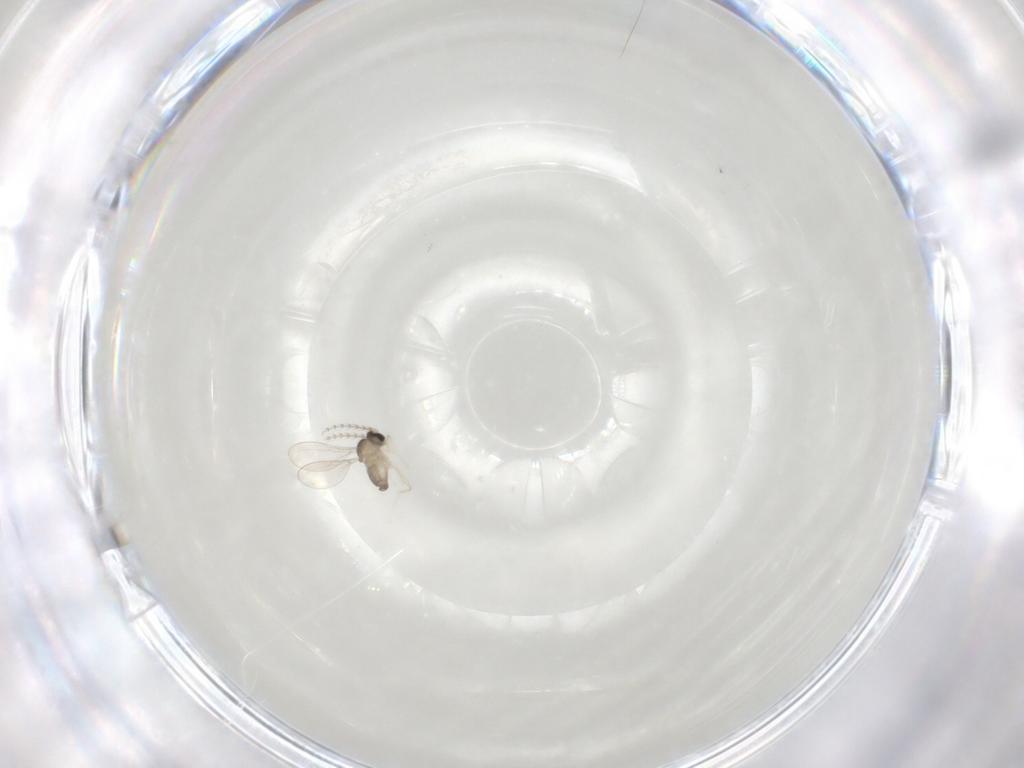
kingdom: Animalia
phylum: Arthropoda
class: Insecta
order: Diptera
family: Cecidomyiidae
